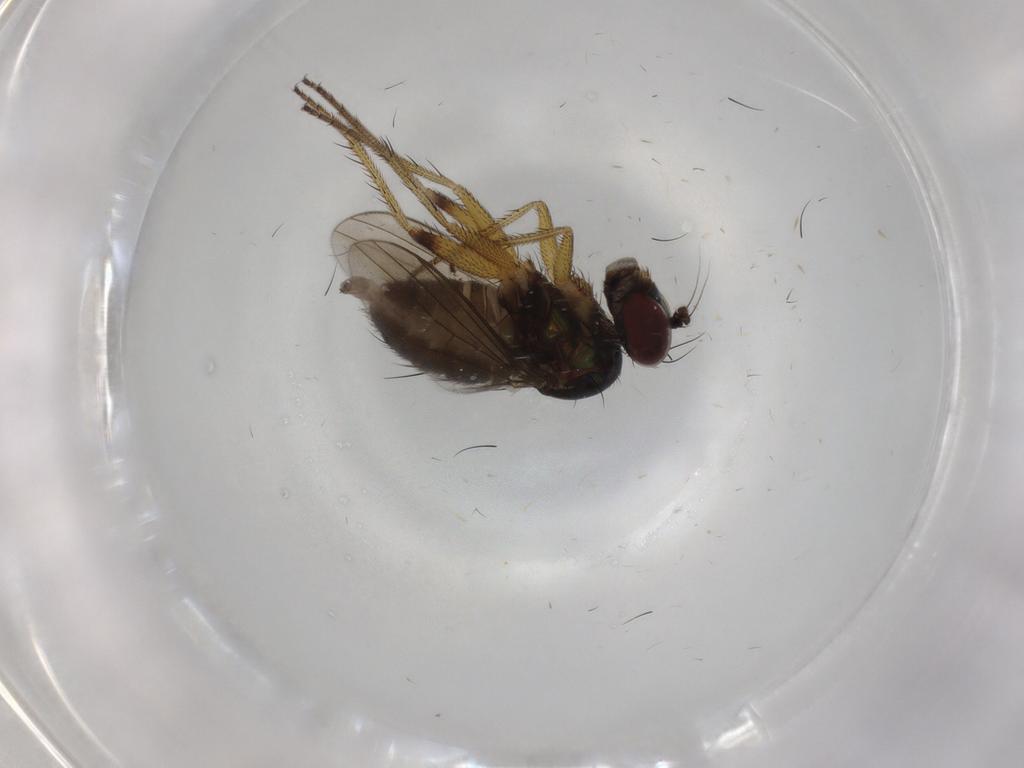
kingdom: Animalia
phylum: Arthropoda
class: Insecta
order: Diptera
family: Dolichopodidae
